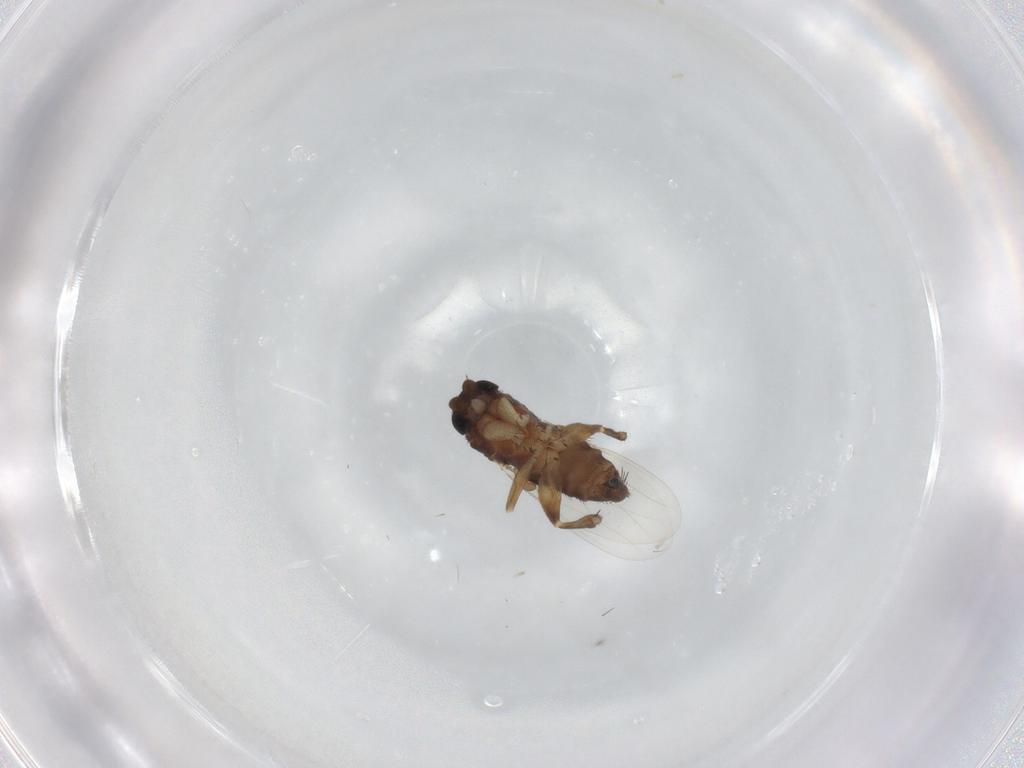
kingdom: Animalia
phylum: Arthropoda
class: Insecta
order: Diptera
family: Phoridae
